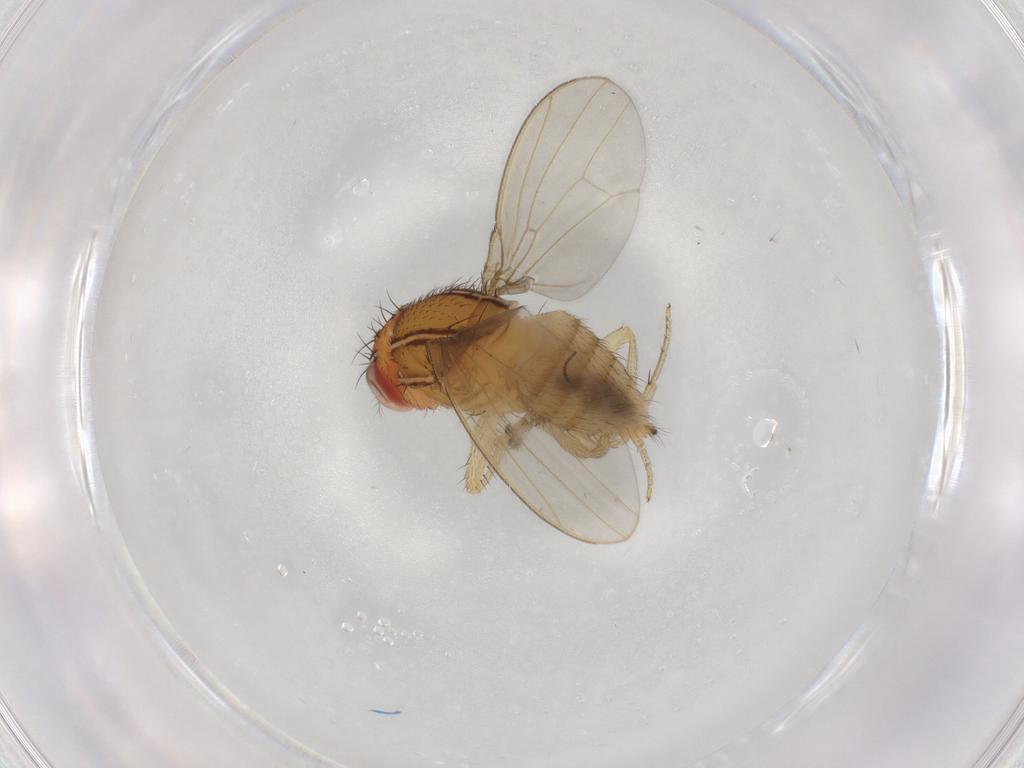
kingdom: Animalia
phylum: Arthropoda
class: Insecta
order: Diptera
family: Drosophilidae
